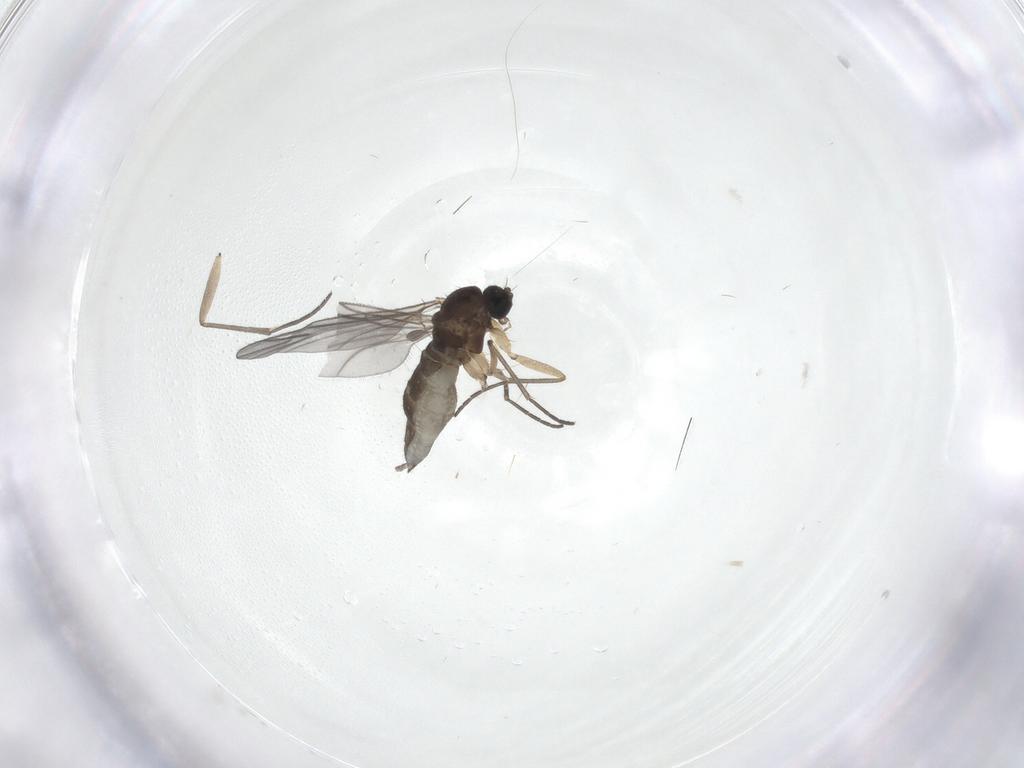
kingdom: Animalia
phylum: Arthropoda
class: Insecta
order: Diptera
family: Sphaeroceridae
